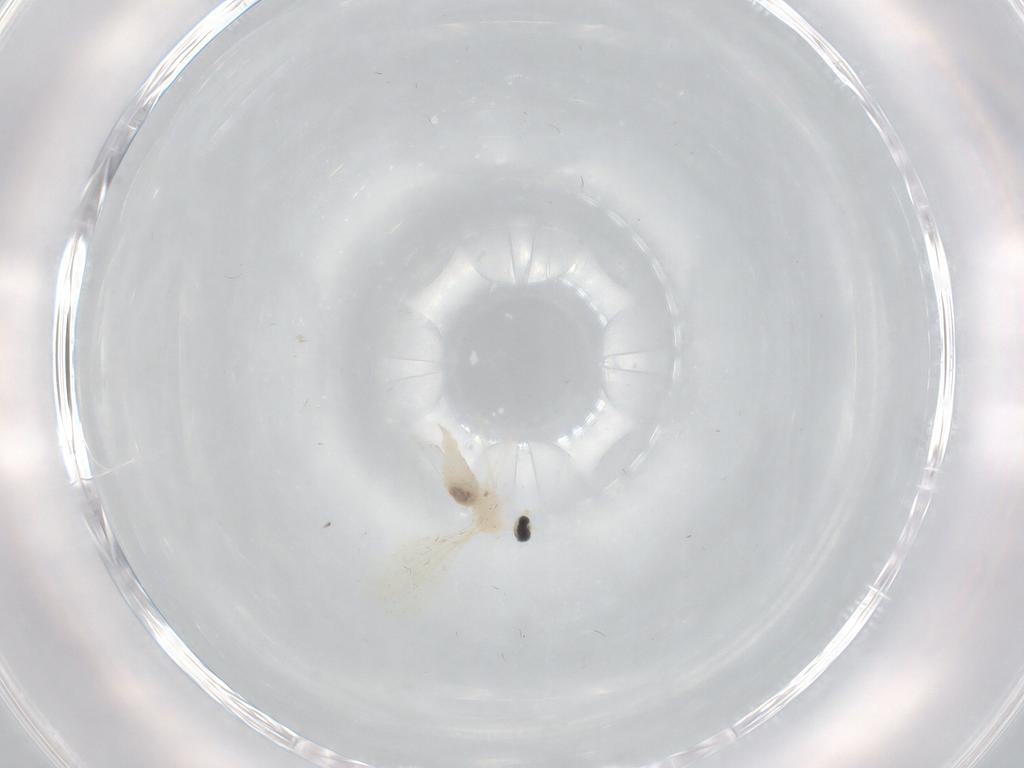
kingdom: Animalia
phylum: Arthropoda
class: Insecta
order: Diptera
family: Cecidomyiidae
